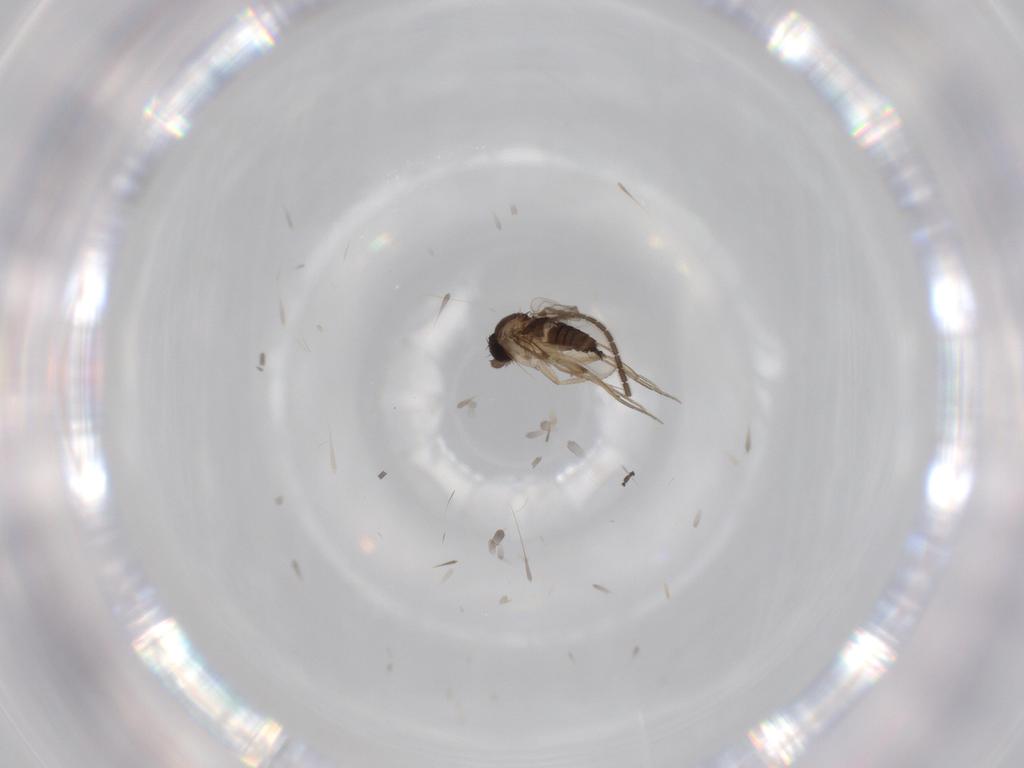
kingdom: Animalia
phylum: Arthropoda
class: Insecta
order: Diptera
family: Phoridae
